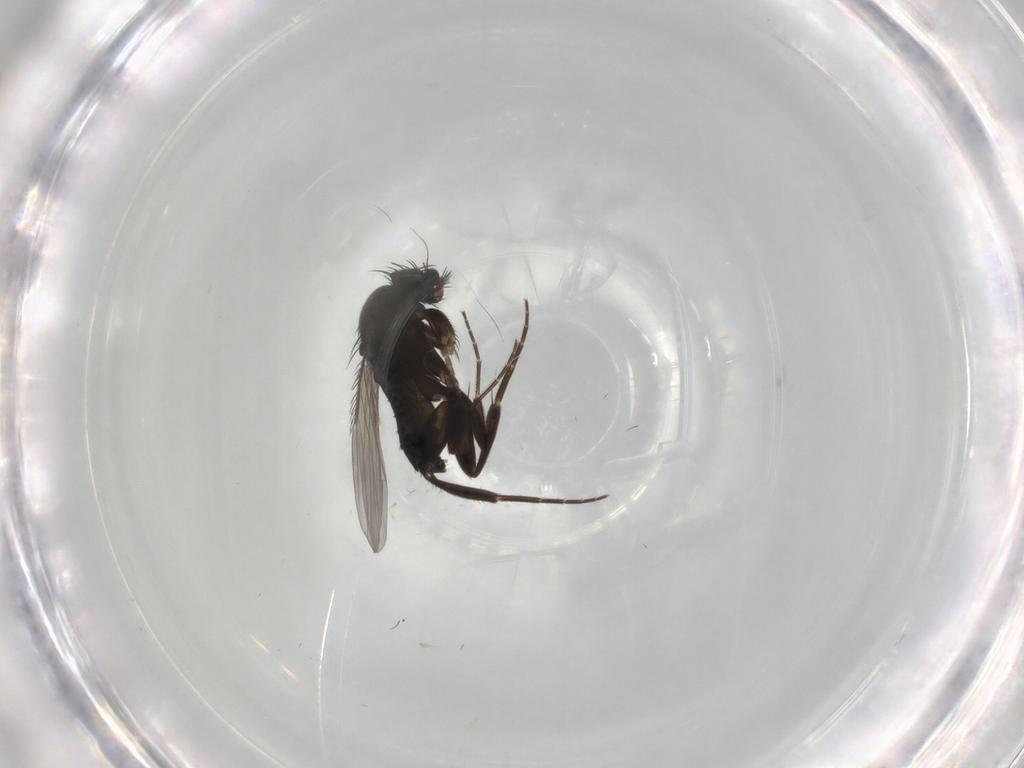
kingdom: Animalia
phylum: Arthropoda
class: Insecta
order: Diptera
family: Phoridae
